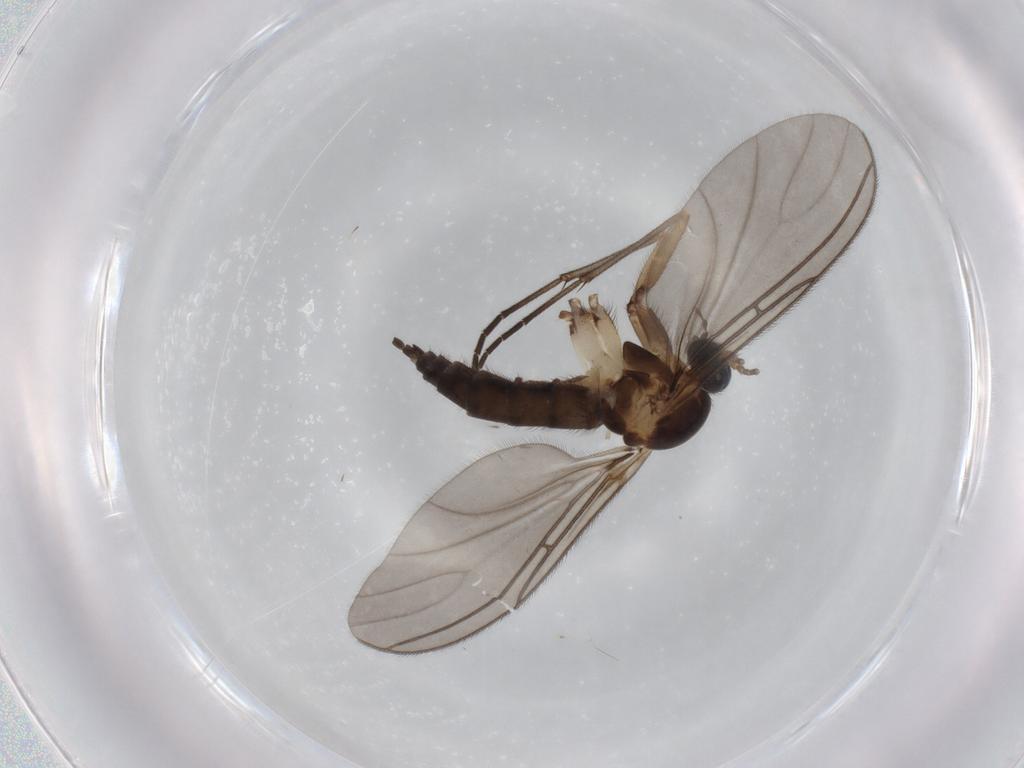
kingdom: Animalia
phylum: Arthropoda
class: Insecta
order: Diptera
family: Sciaridae
